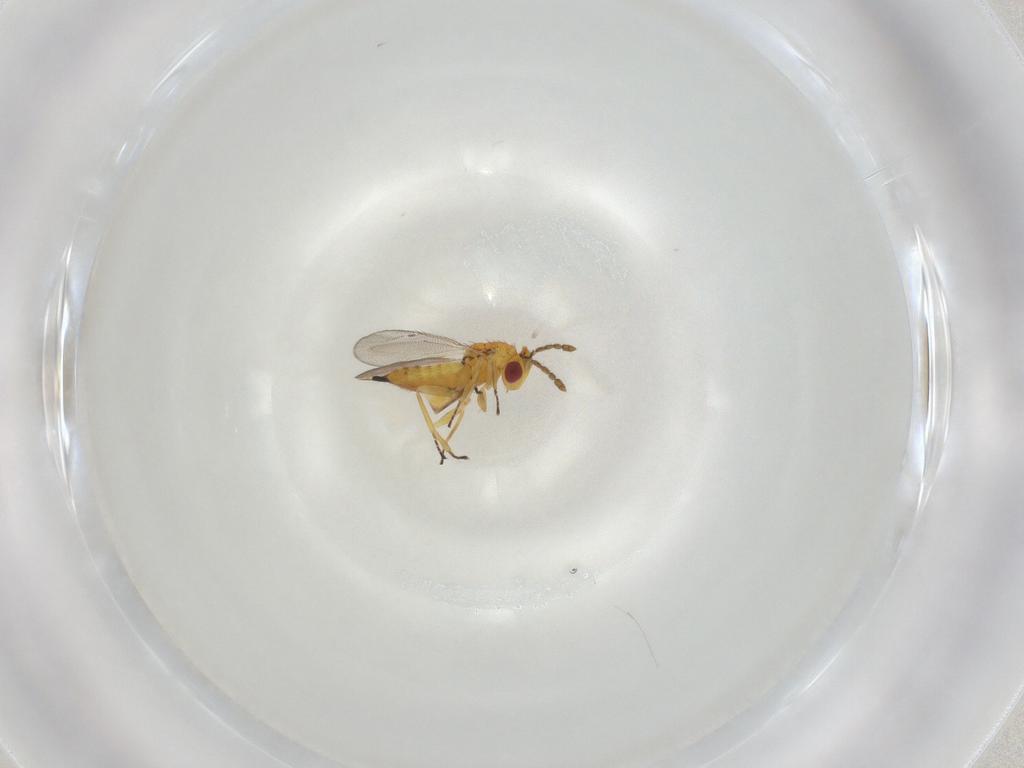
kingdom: Animalia
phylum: Arthropoda
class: Insecta
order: Hymenoptera
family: Eulophidae
